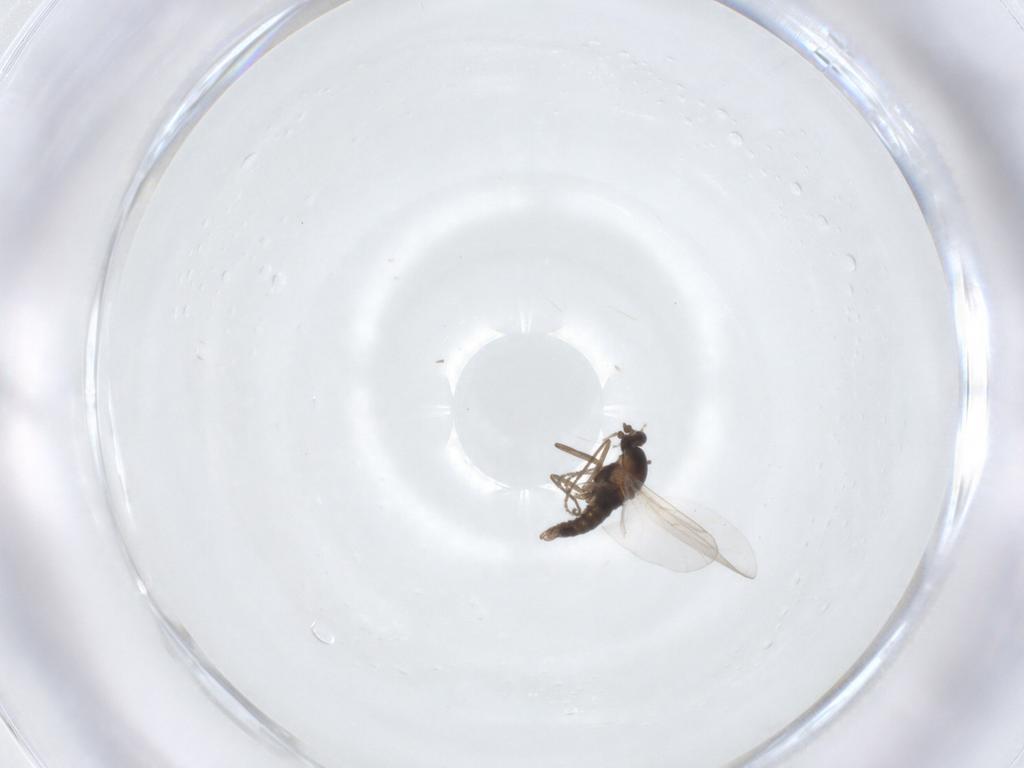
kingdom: Animalia
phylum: Arthropoda
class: Insecta
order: Diptera
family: Cecidomyiidae
